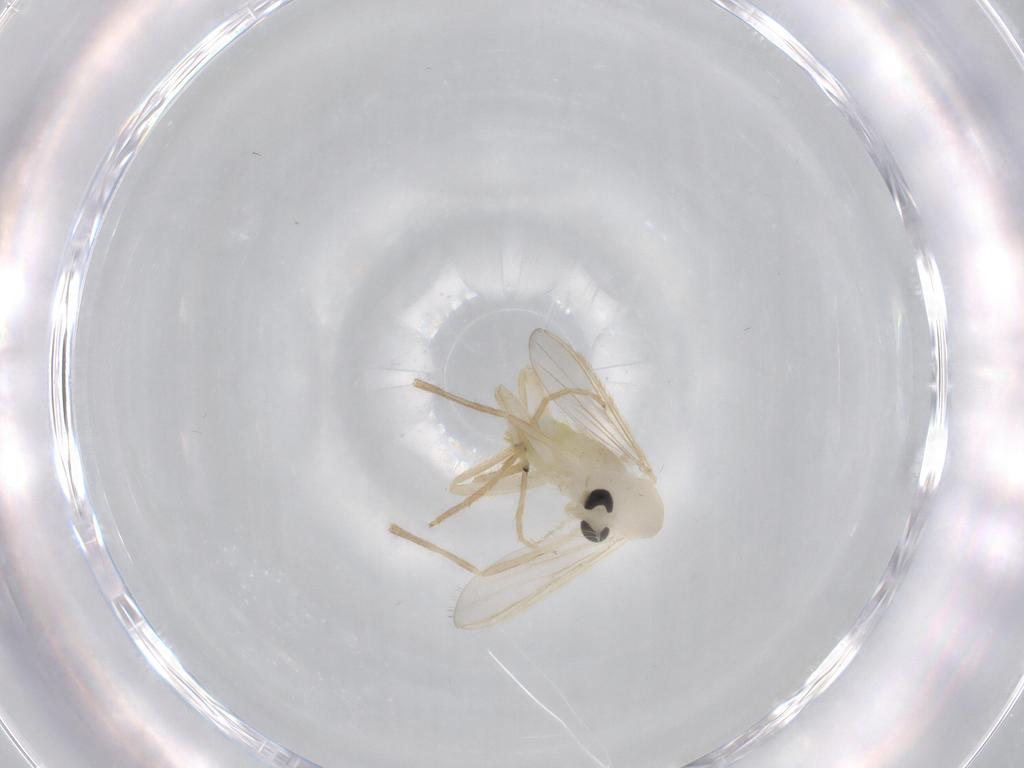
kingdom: Animalia
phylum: Arthropoda
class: Insecta
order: Diptera
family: Chironomidae
